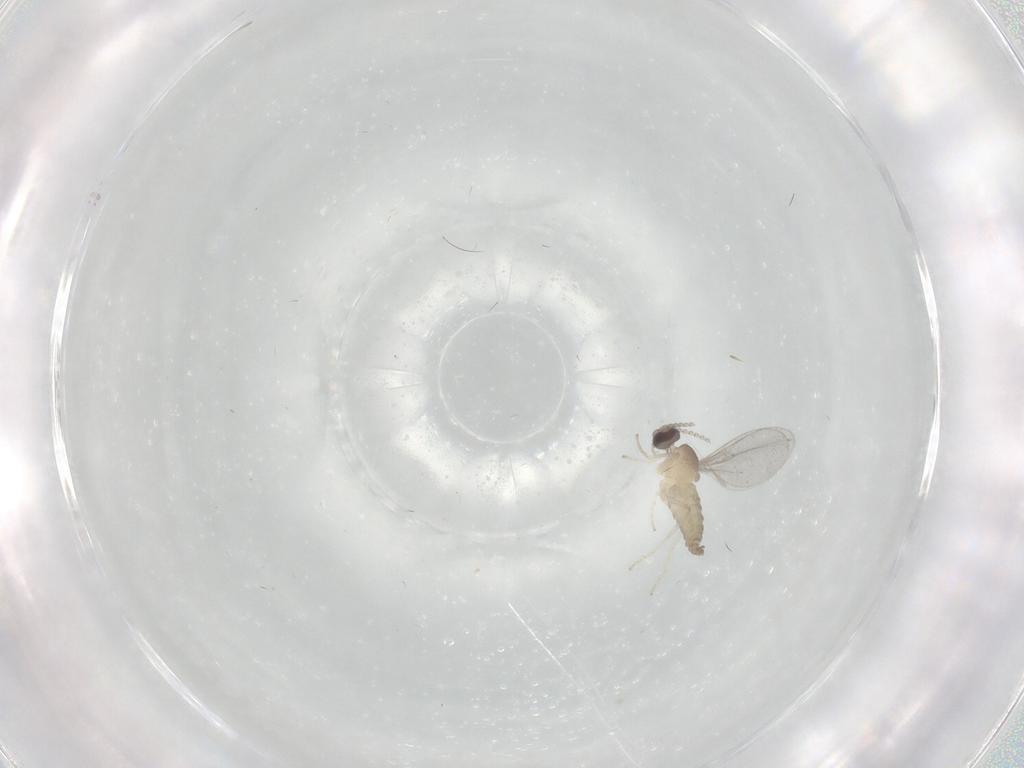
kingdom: Animalia
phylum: Arthropoda
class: Insecta
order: Diptera
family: Cecidomyiidae
